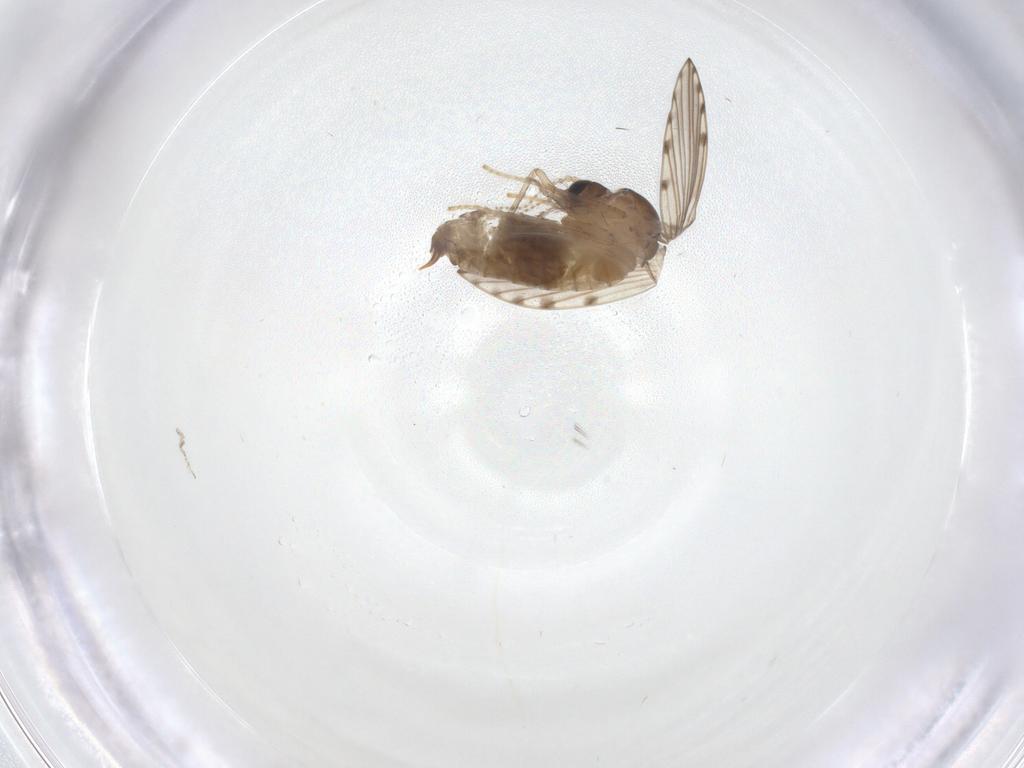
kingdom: Animalia
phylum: Arthropoda
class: Insecta
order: Diptera
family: Psychodidae
